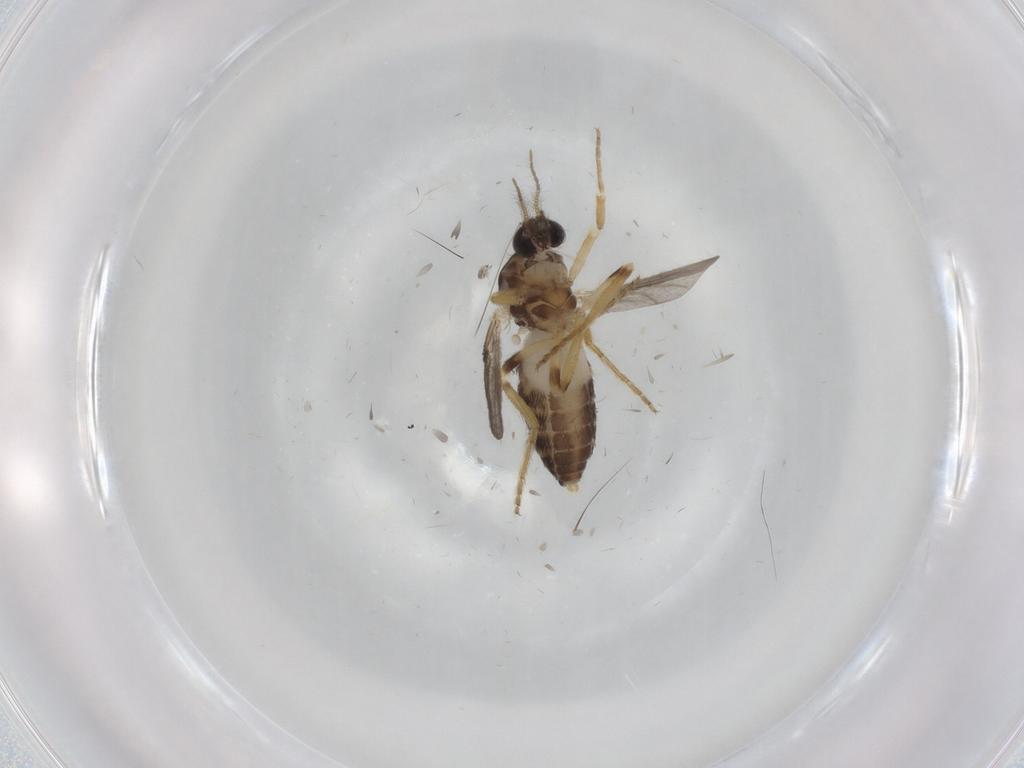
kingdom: Animalia
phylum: Arthropoda
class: Insecta
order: Diptera
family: Ceratopogonidae
